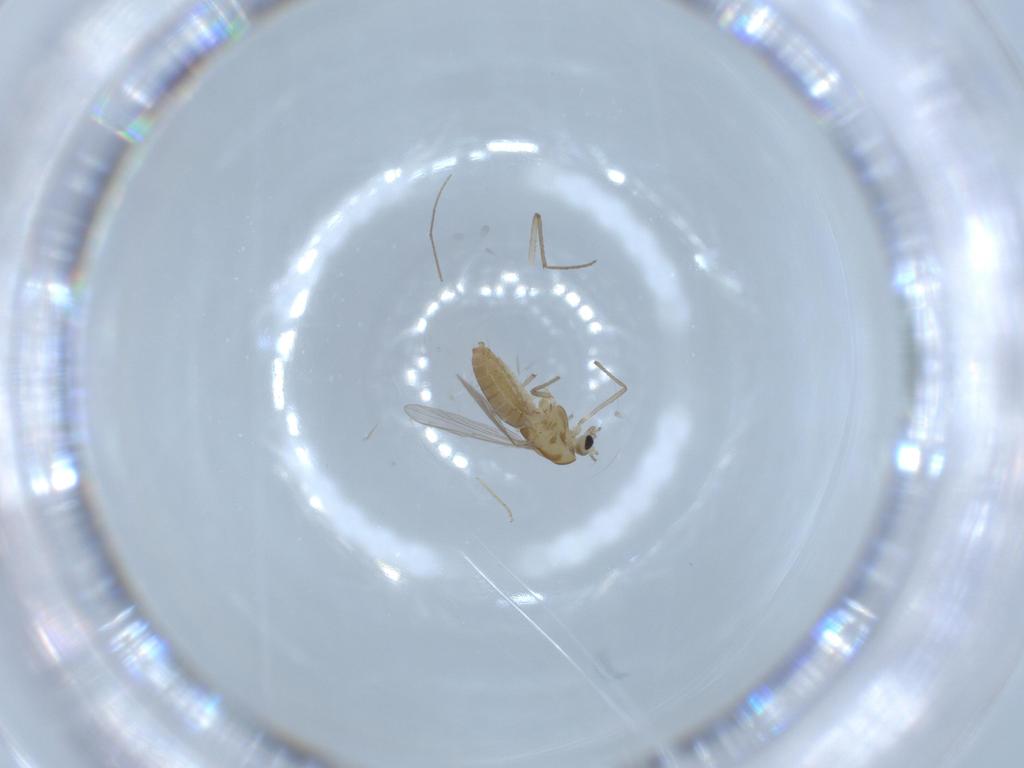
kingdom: Animalia
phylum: Arthropoda
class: Insecta
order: Diptera
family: Chironomidae
